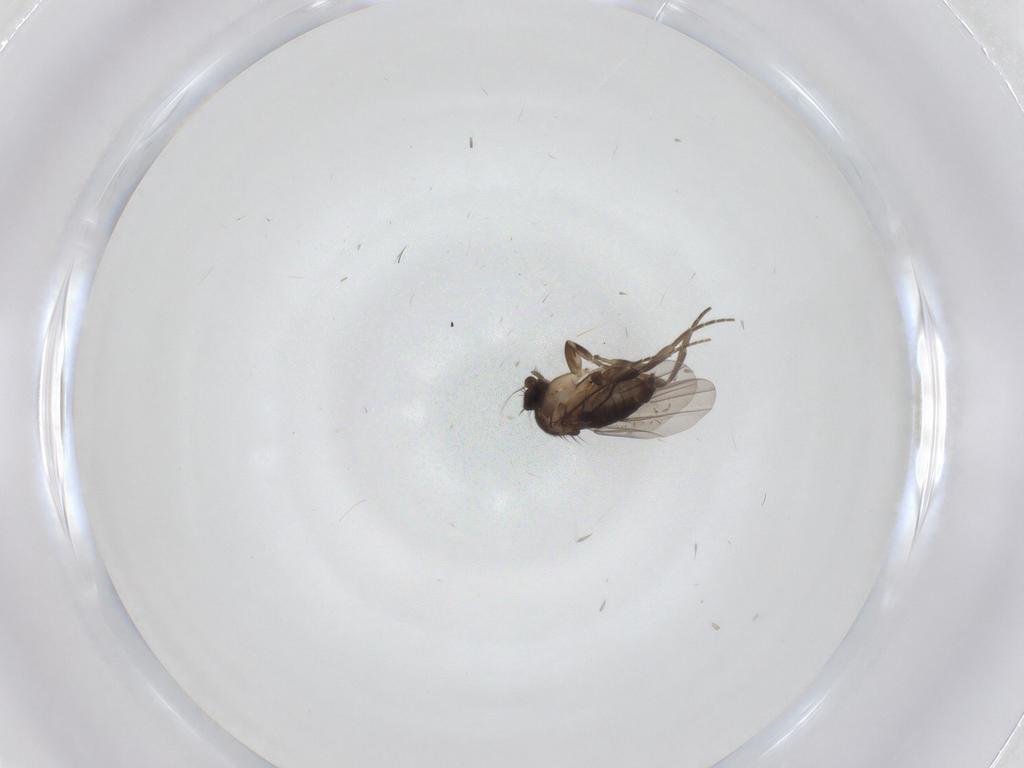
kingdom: Animalia
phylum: Arthropoda
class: Insecta
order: Diptera
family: Phoridae
